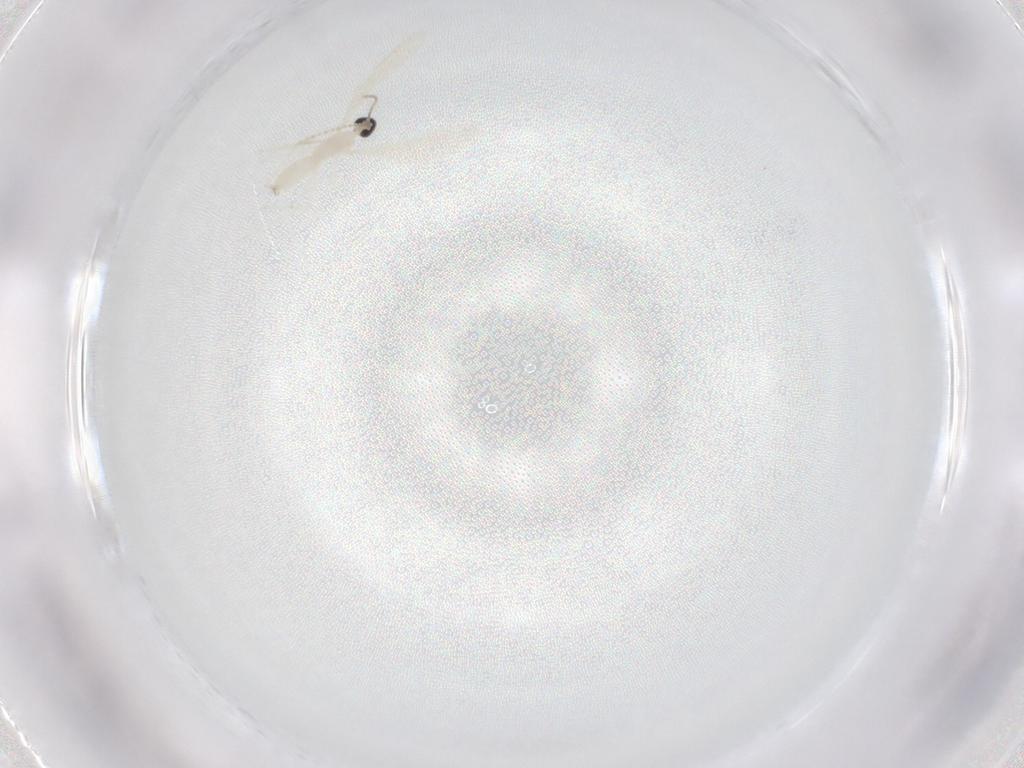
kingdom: Animalia
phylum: Arthropoda
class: Insecta
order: Diptera
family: Cecidomyiidae
